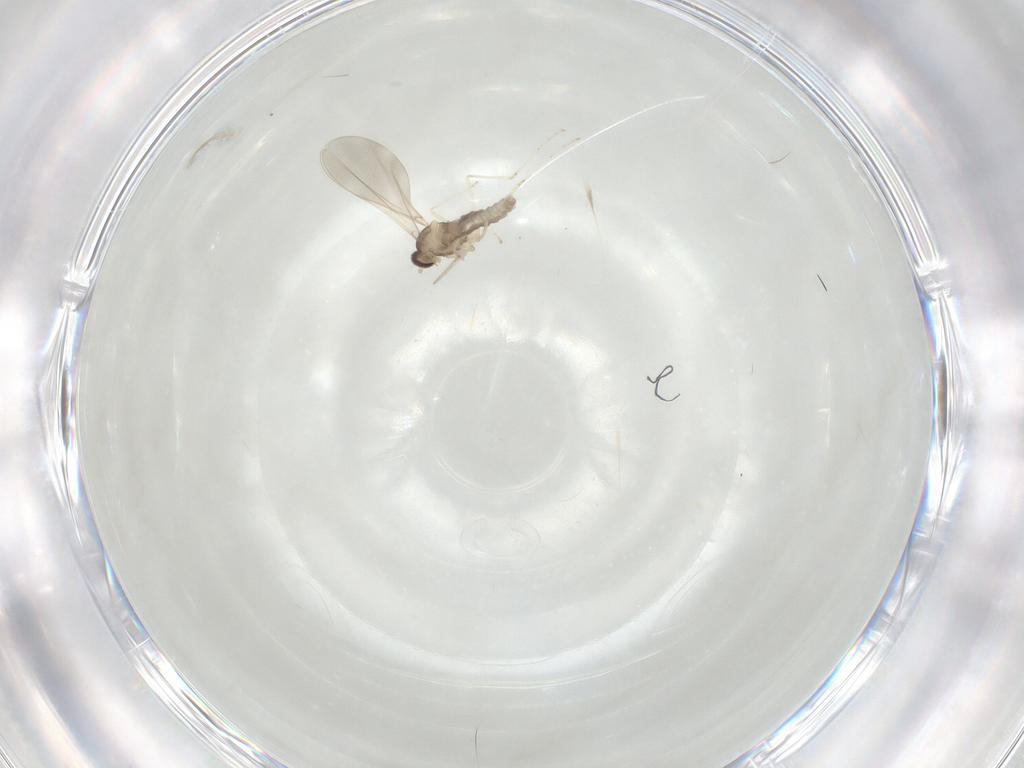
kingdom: Animalia
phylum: Arthropoda
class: Insecta
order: Diptera
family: Chironomidae
